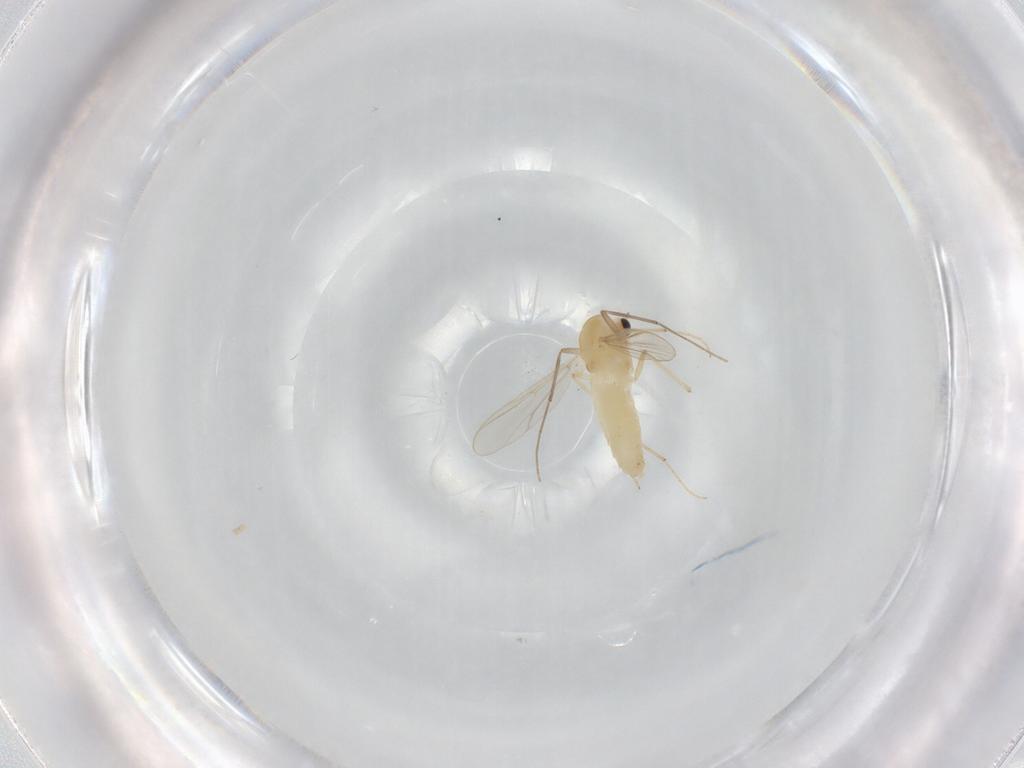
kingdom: Animalia
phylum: Arthropoda
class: Insecta
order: Diptera
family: Chironomidae
